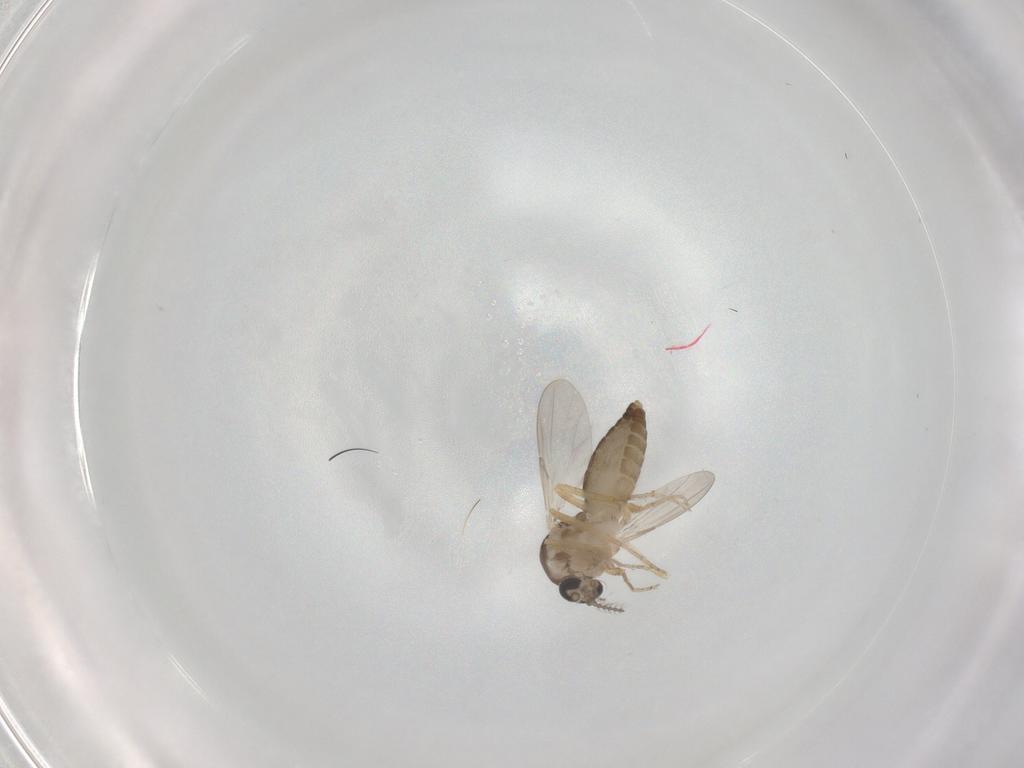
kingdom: Animalia
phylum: Arthropoda
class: Insecta
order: Diptera
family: Ceratopogonidae
